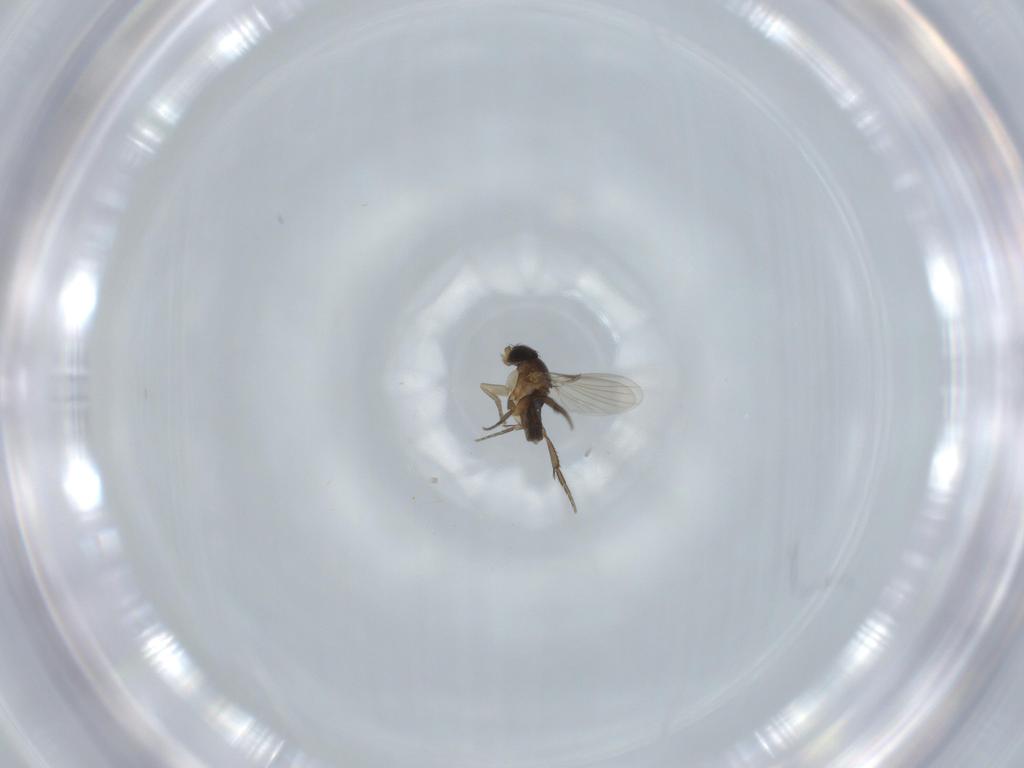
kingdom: Animalia
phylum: Arthropoda
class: Insecta
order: Diptera
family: Phoridae
